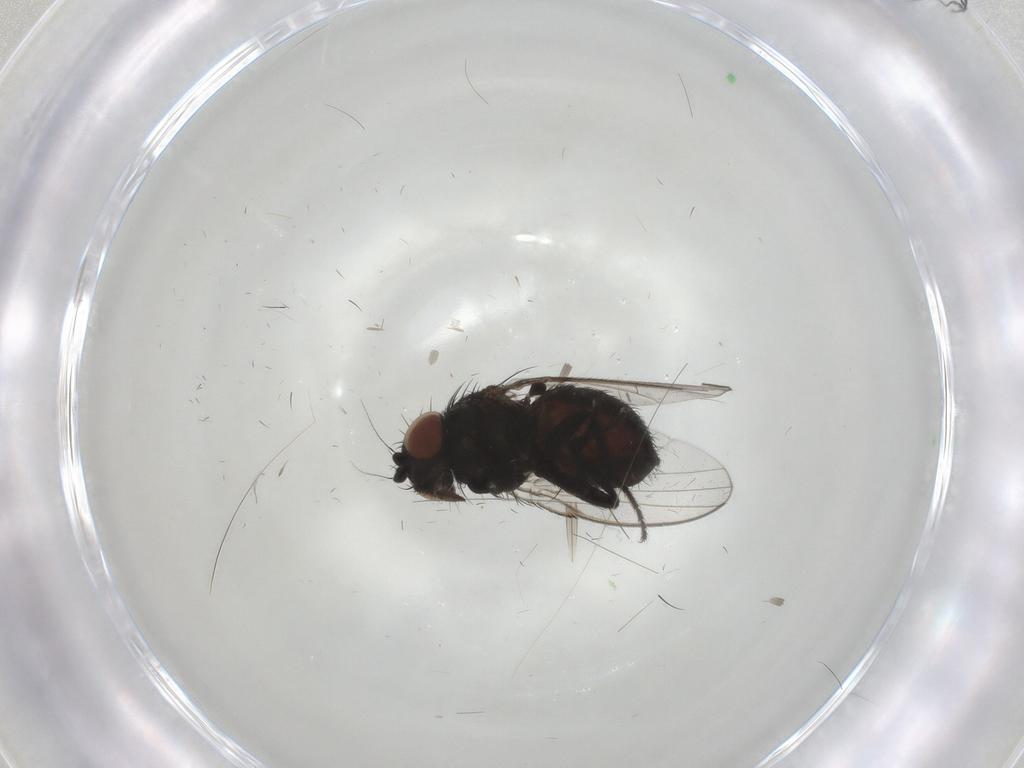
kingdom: Animalia
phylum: Arthropoda
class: Insecta
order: Diptera
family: Milichiidae
